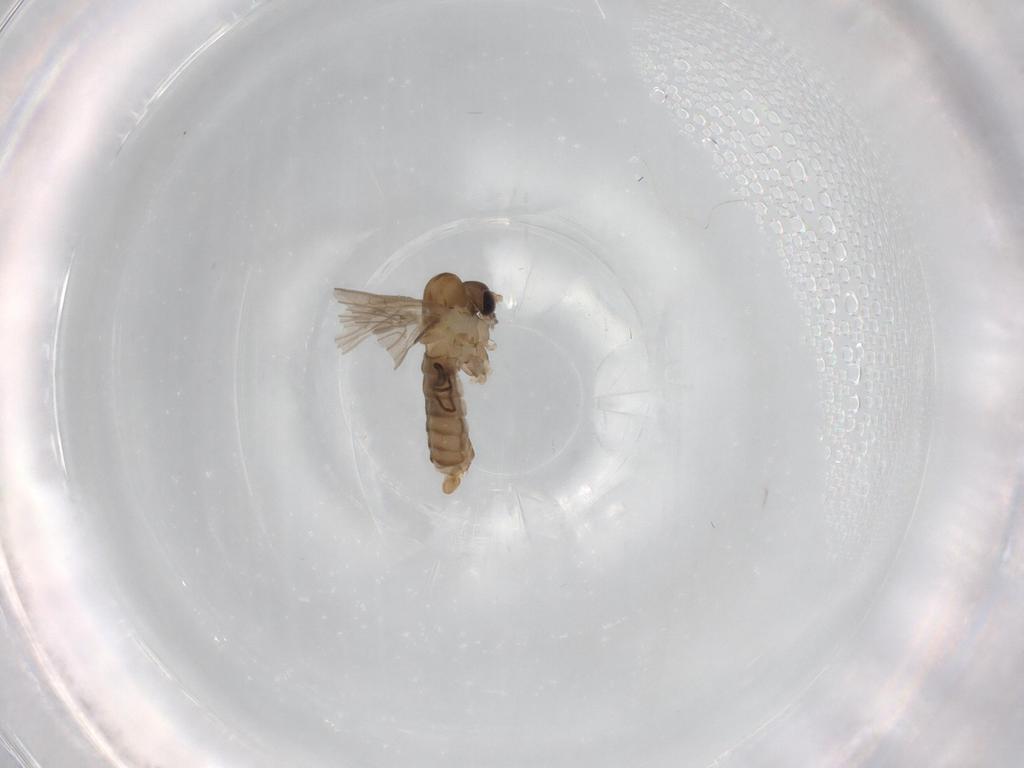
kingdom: Animalia
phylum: Arthropoda
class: Insecta
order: Diptera
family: Psychodidae
